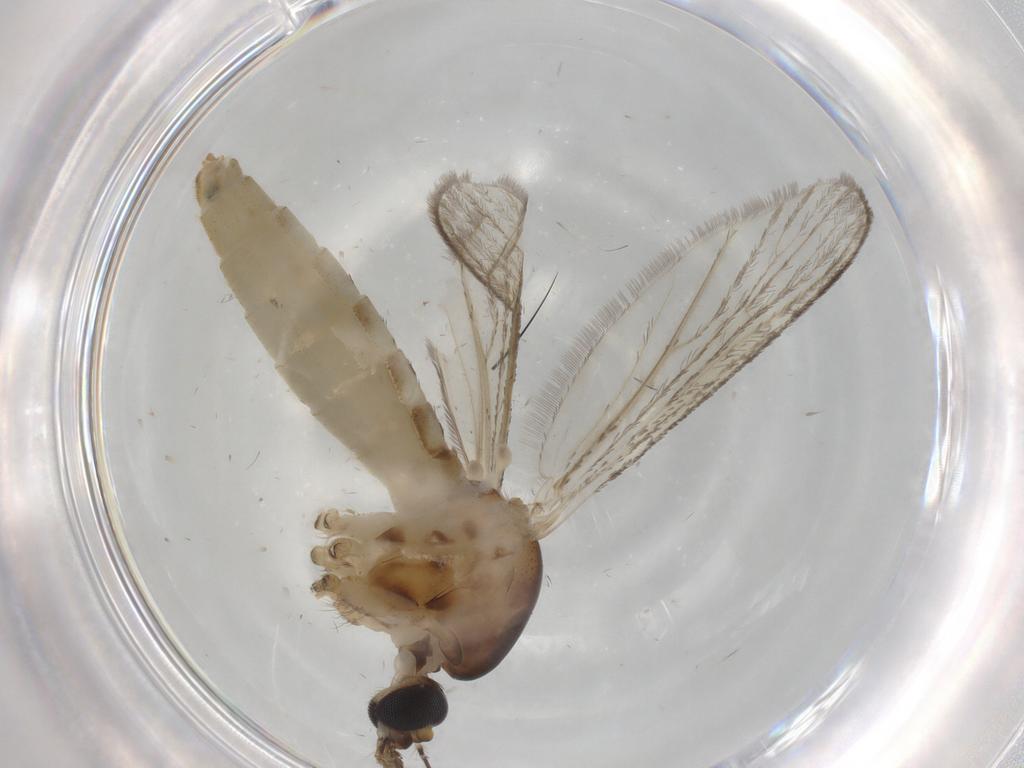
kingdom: Animalia
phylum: Arthropoda
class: Insecta
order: Diptera
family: Ceratopogonidae
